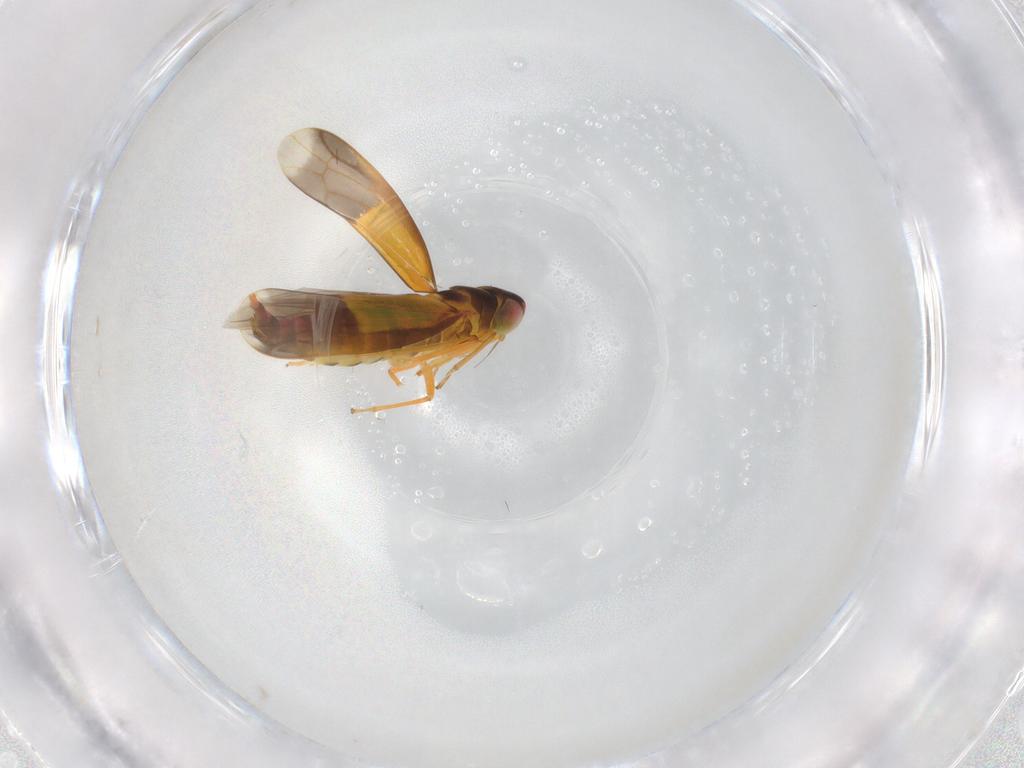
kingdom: Animalia
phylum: Arthropoda
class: Insecta
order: Hemiptera
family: Cicadellidae
